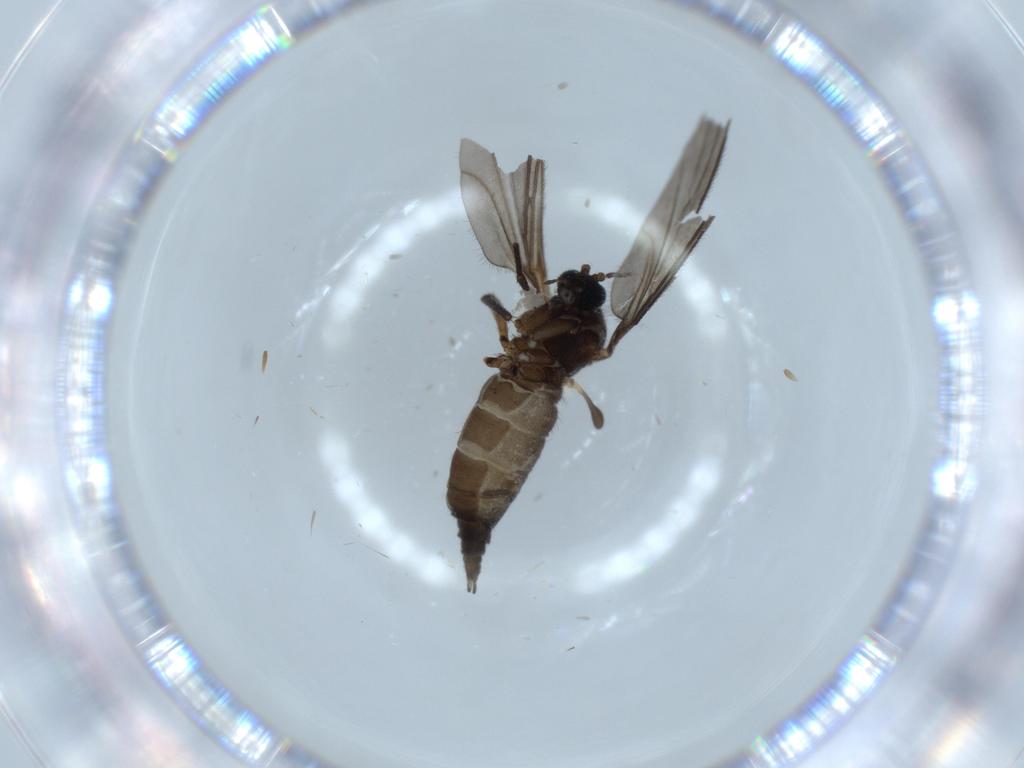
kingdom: Animalia
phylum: Arthropoda
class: Insecta
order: Diptera
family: Sciaridae
